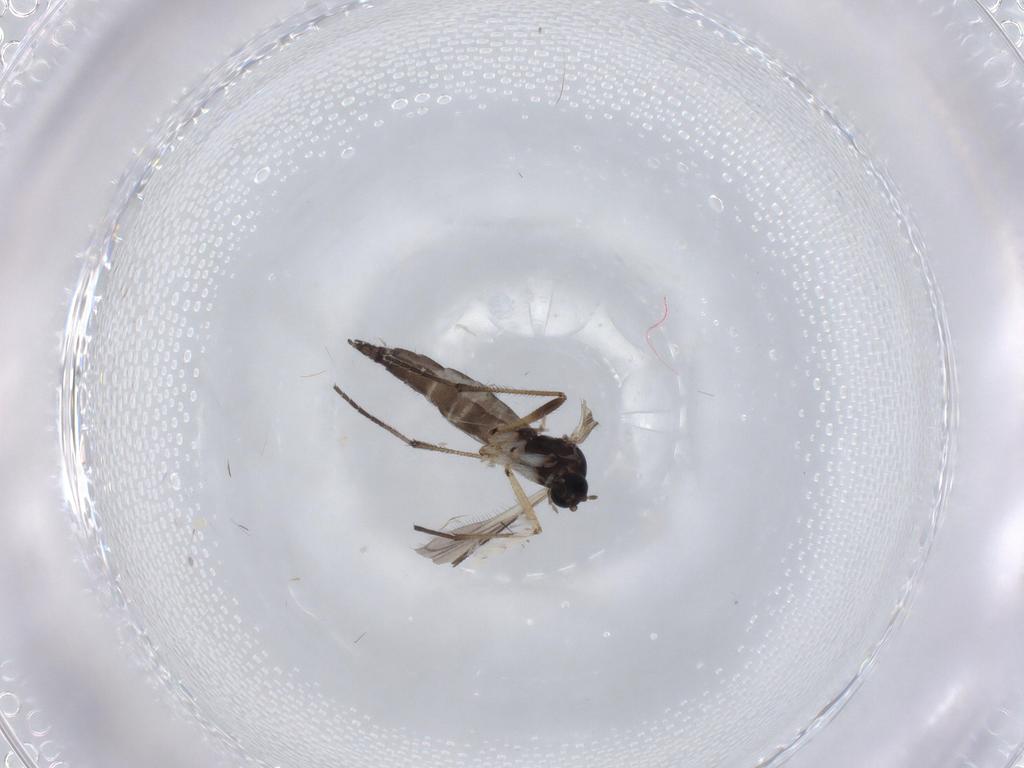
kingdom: Animalia
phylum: Arthropoda
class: Insecta
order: Diptera
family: Sciaridae
